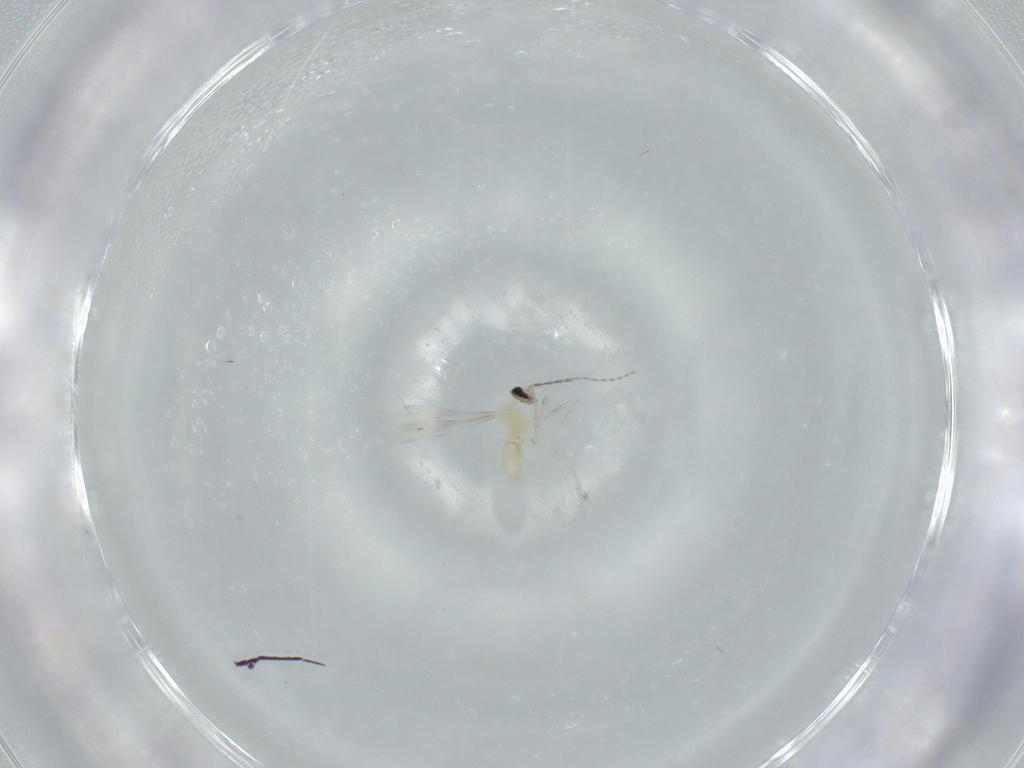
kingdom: Animalia
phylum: Arthropoda
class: Insecta
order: Diptera
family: Cecidomyiidae
